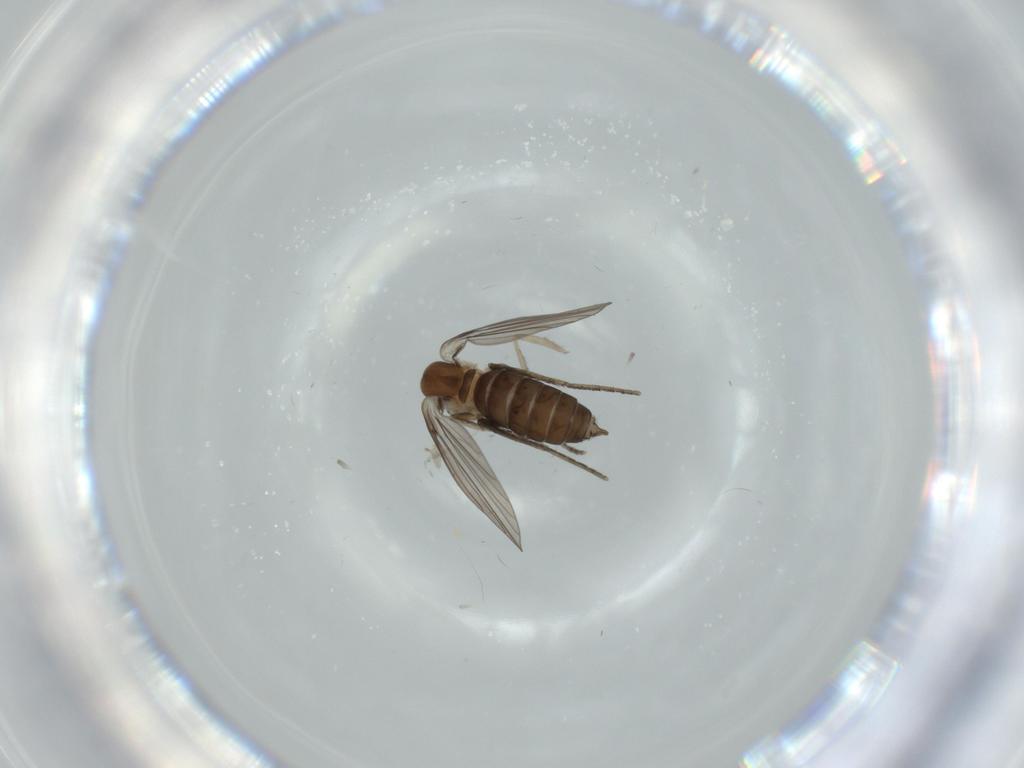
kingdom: Animalia
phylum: Arthropoda
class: Insecta
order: Diptera
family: Psychodidae
